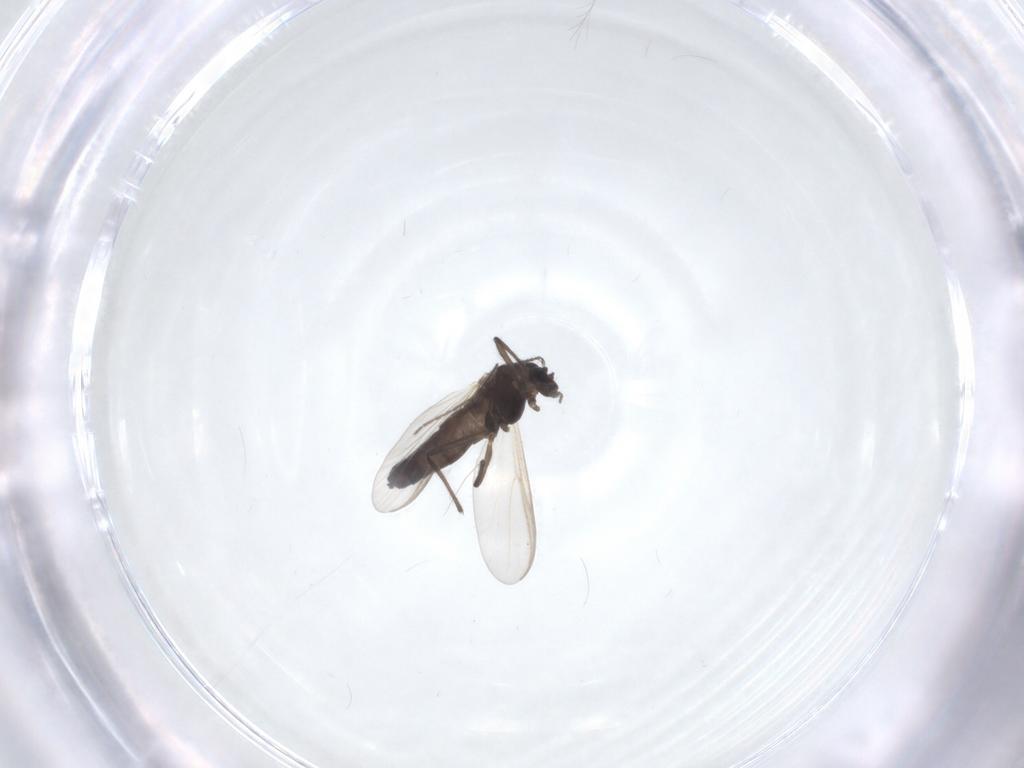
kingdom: Animalia
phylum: Arthropoda
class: Insecta
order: Diptera
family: Chironomidae
